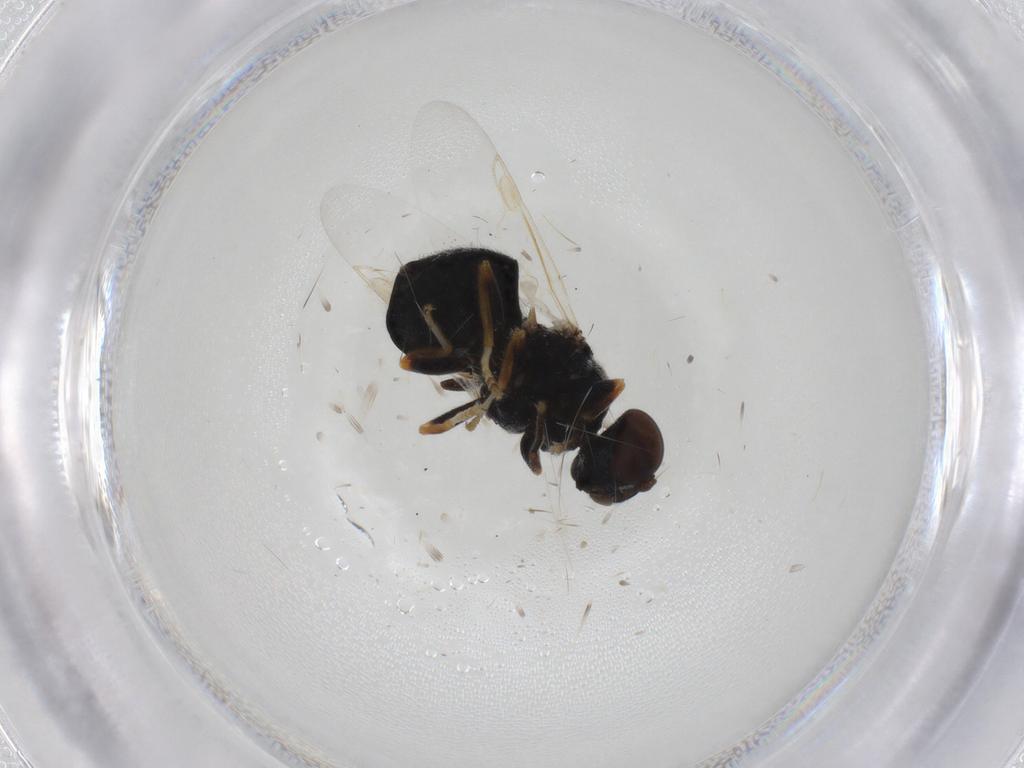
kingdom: Animalia
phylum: Arthropoda
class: Insecta
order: Diptera
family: Stratiomyidae
